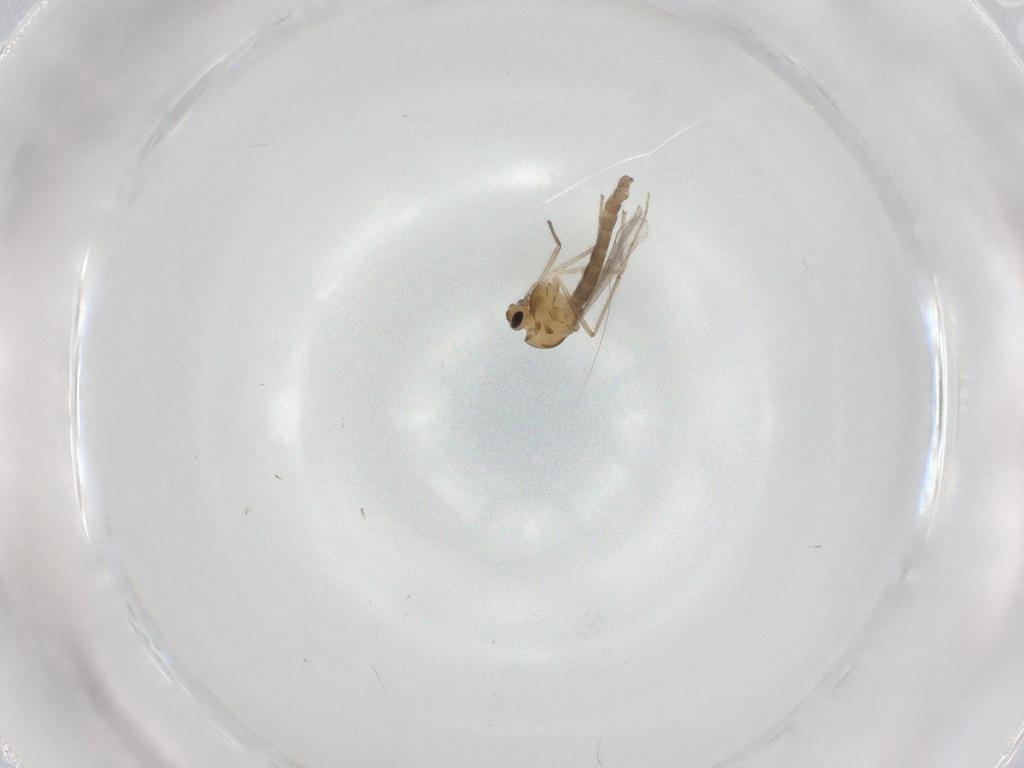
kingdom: Animalia
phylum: Arthropoda
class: Insecta
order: Diptera
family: Chironomidae
